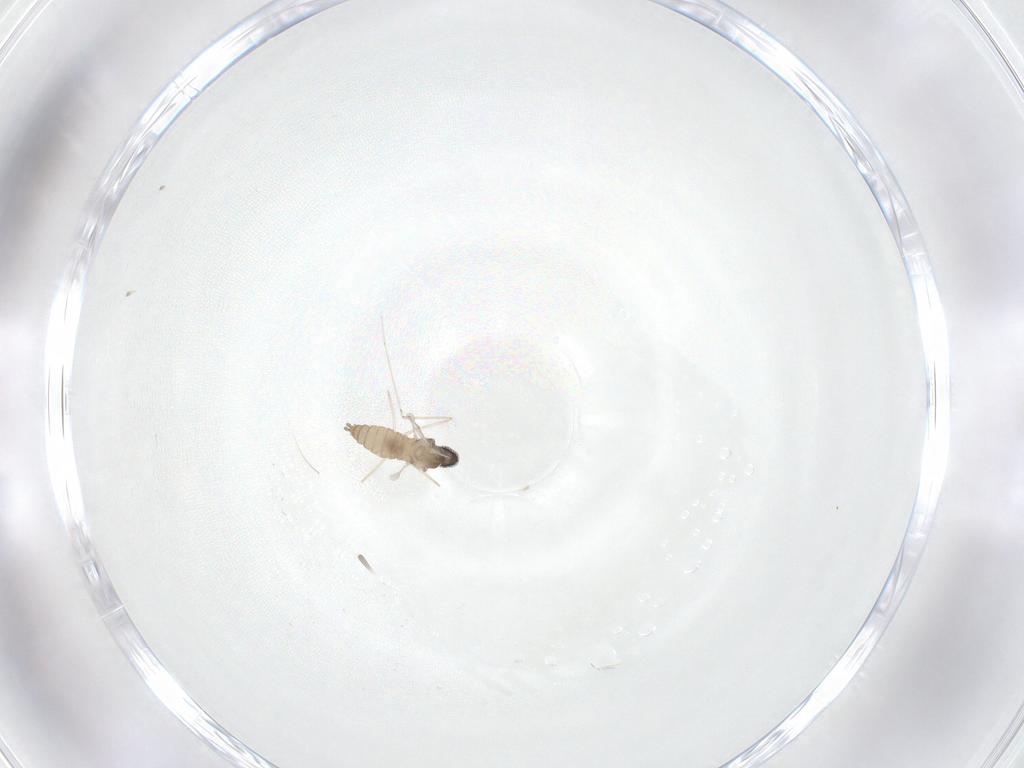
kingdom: Animalia
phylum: Arthropoda
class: Insecta
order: Diptera
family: Cecidomyiidae
